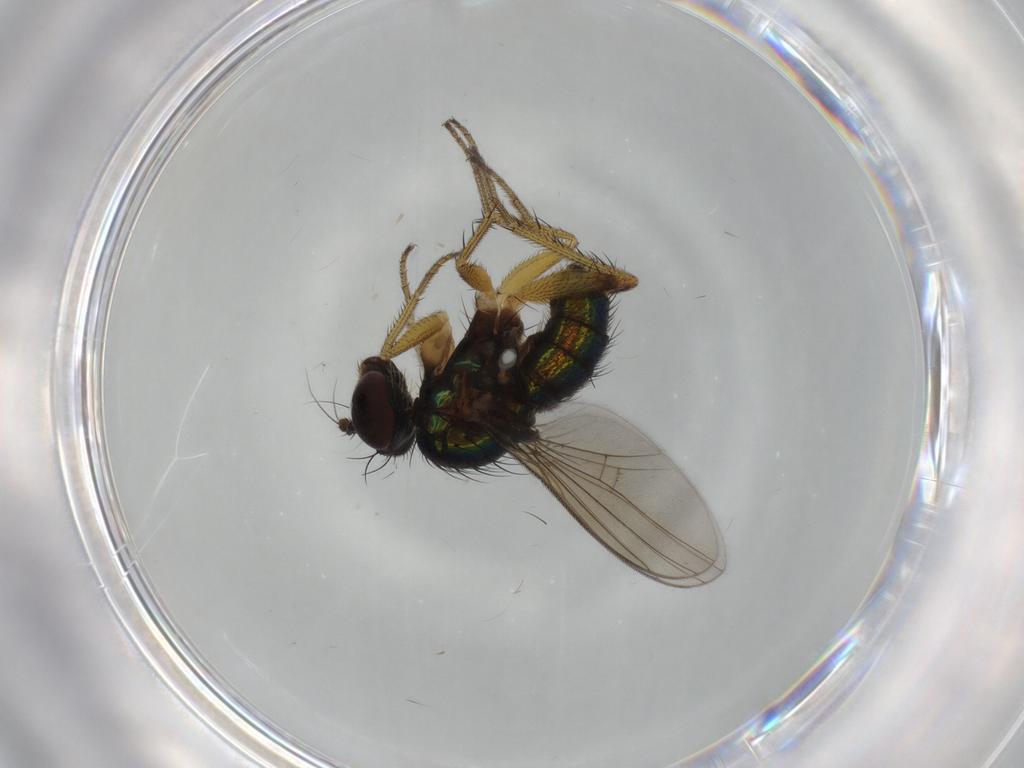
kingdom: Animalia
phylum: Arthropoda
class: Insecta
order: Diptera
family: Dolichopodidae
